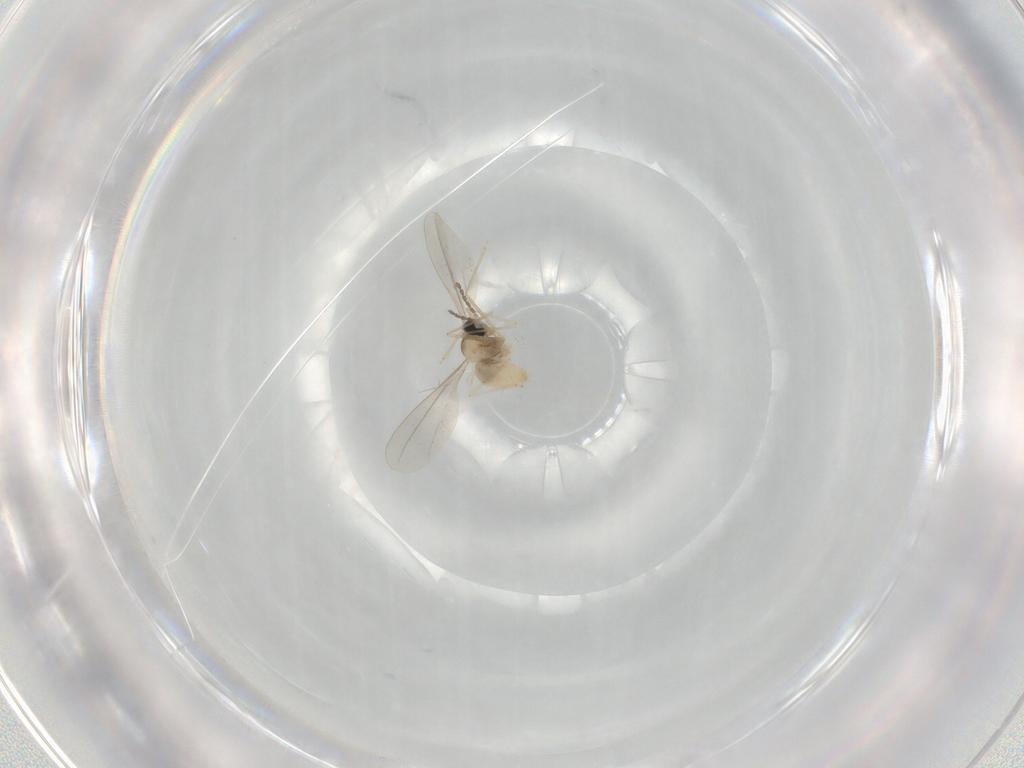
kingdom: Animalia
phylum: Arthropoda
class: Insecta
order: Diptera
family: Cecidomyiidae
